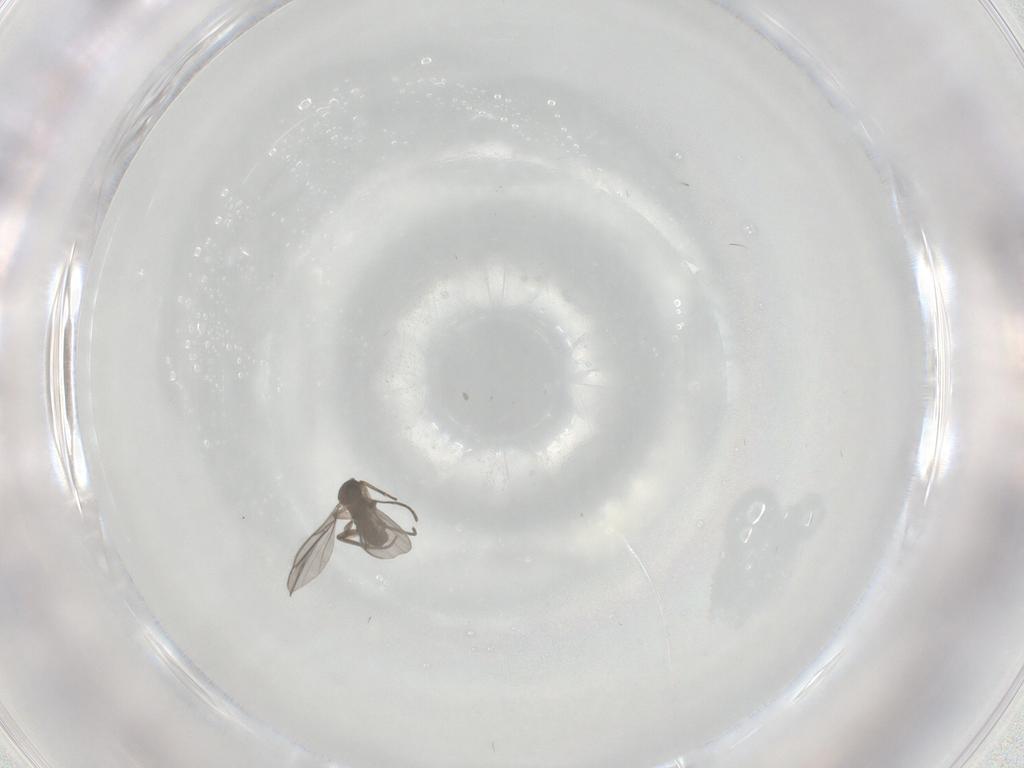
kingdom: Animalia
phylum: Arthropoda
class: Insecta
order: Diptera
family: Sciaridae
